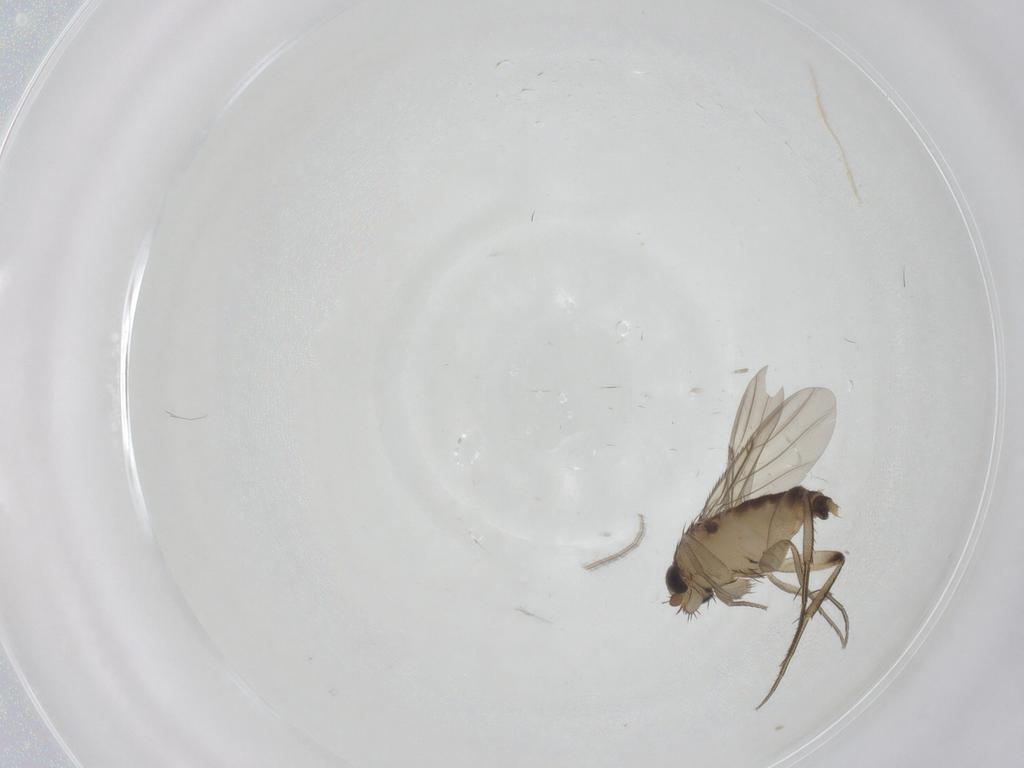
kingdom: Animalia
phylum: Arthropoda
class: Insecta
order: Diptera
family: Phoridae
